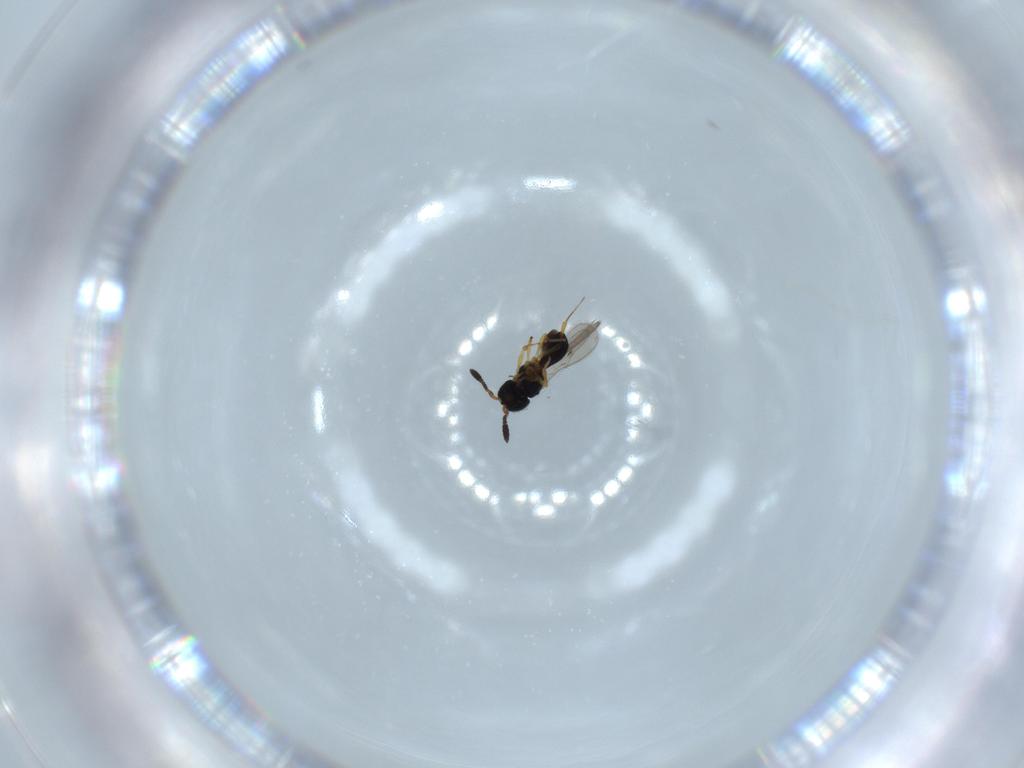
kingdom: Animalia
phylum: Arthropoda
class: Insecta
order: Hymenoptera
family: Scelionidae
